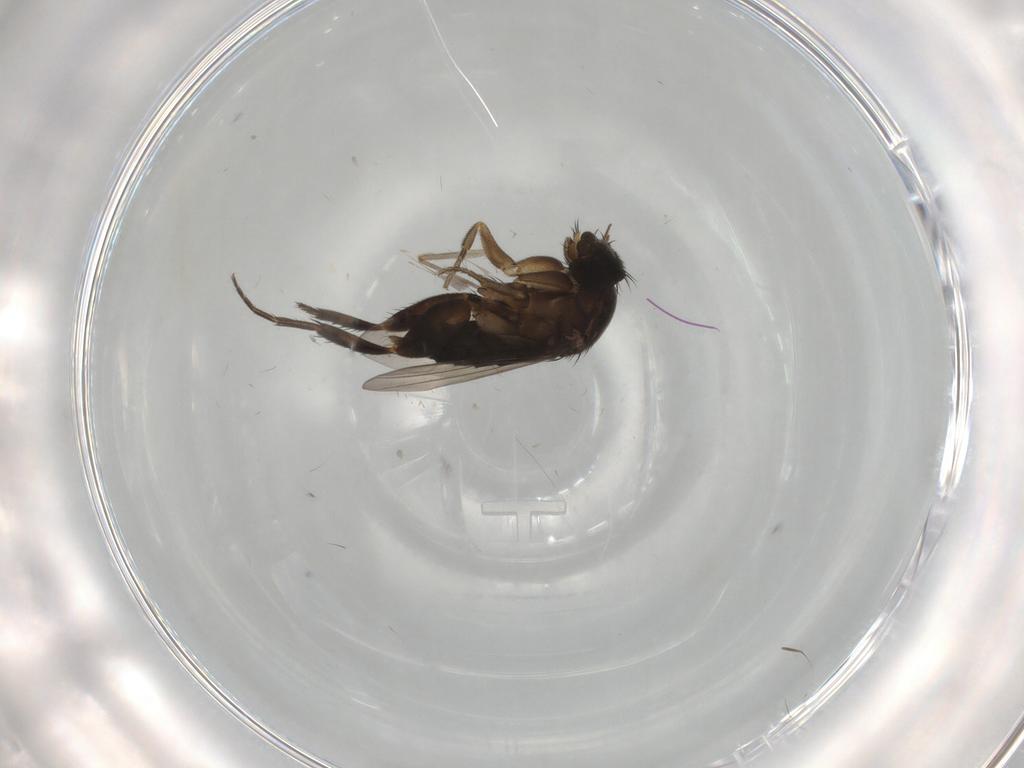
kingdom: Animalia
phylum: Arthropoda
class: Insecta
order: Diptera
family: Phoridae
